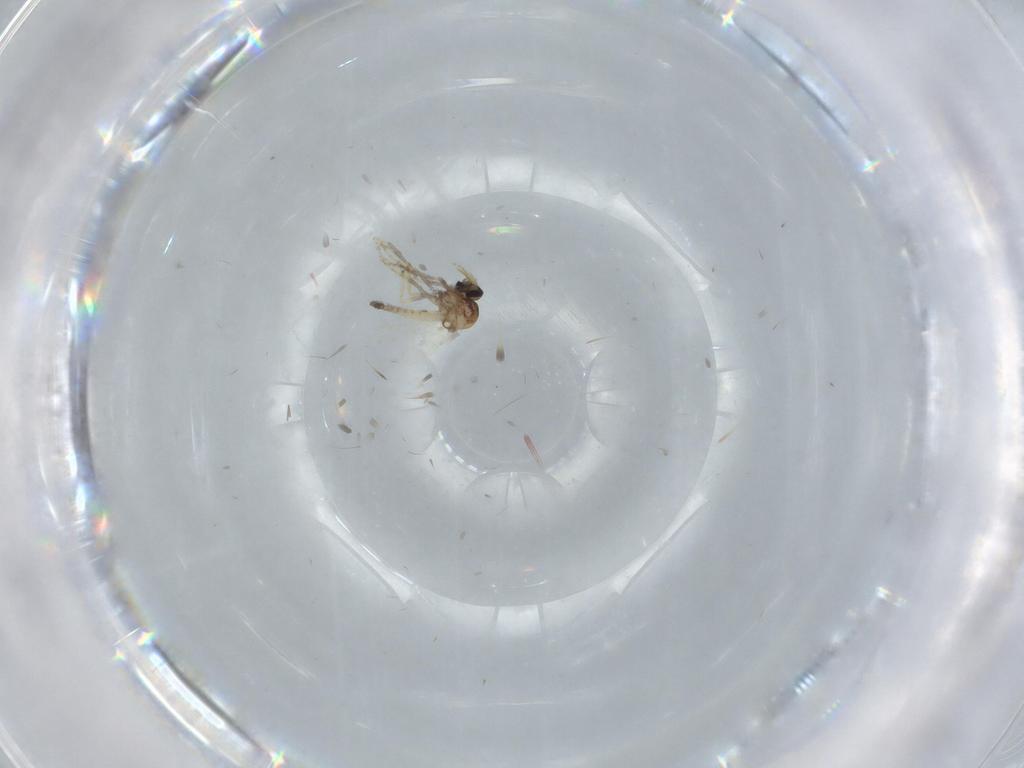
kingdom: Animalia
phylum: Arthropoda
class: Insecta
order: Diptera
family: Ceratopogonidae
